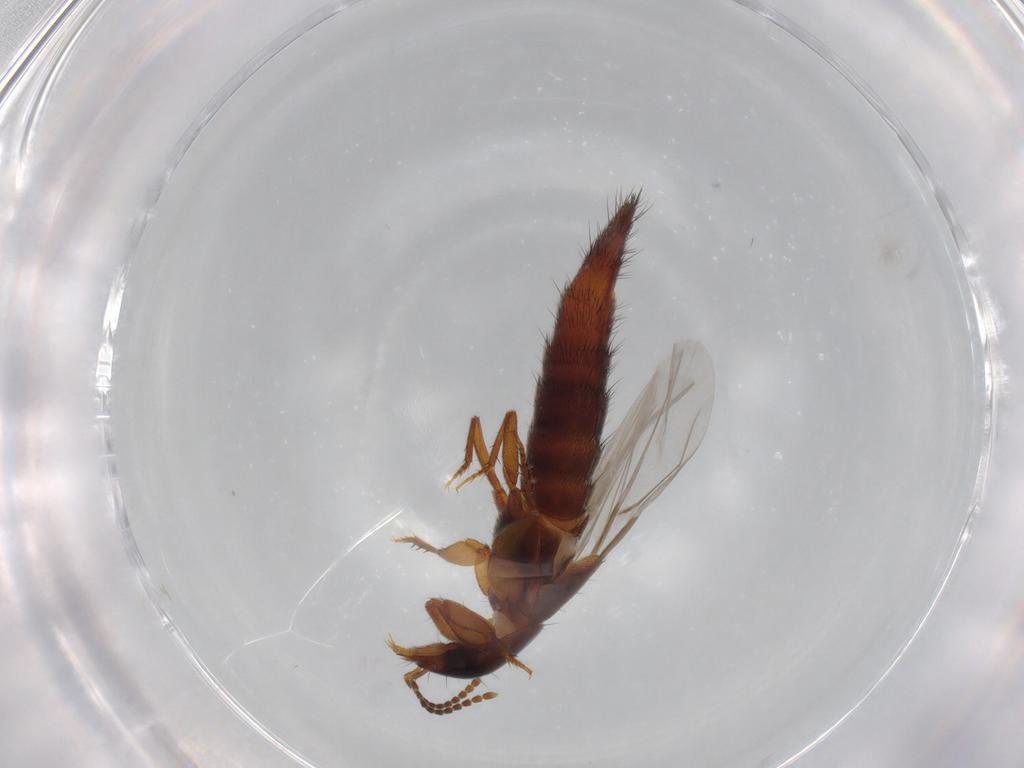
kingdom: Animalia
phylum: Arthropoda
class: Insecta
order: Coleoptera
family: Staphylinidae
